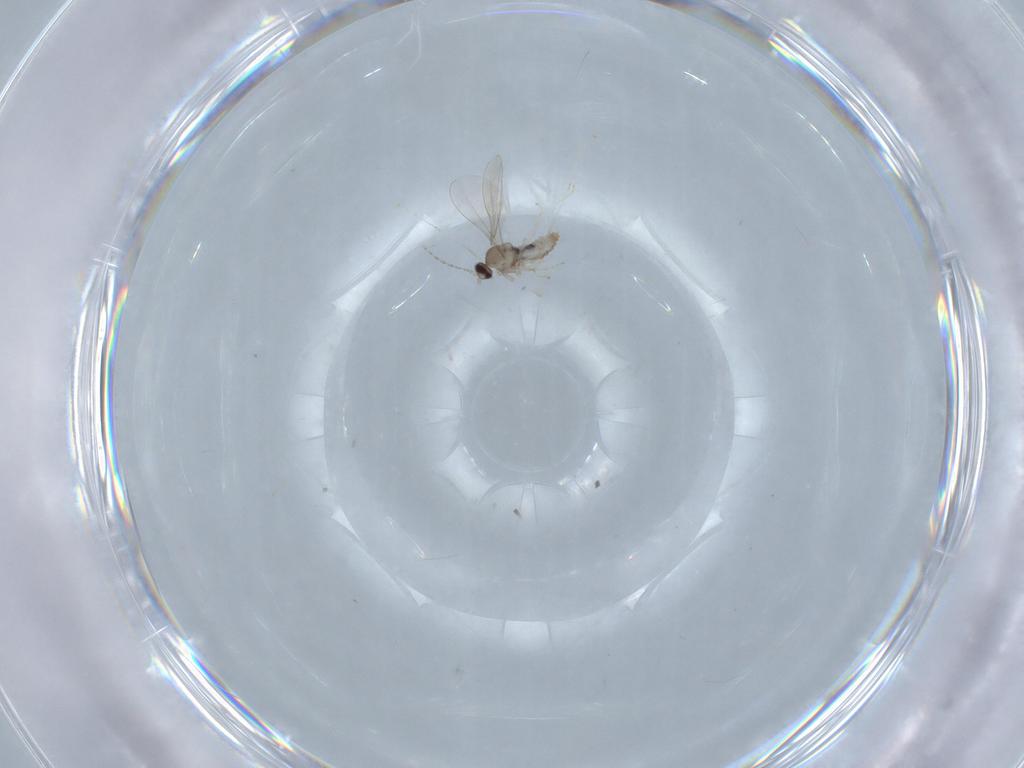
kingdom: Animalia
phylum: Arthropoda
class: Insecta
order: Diptera
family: Cecidomyiidae
